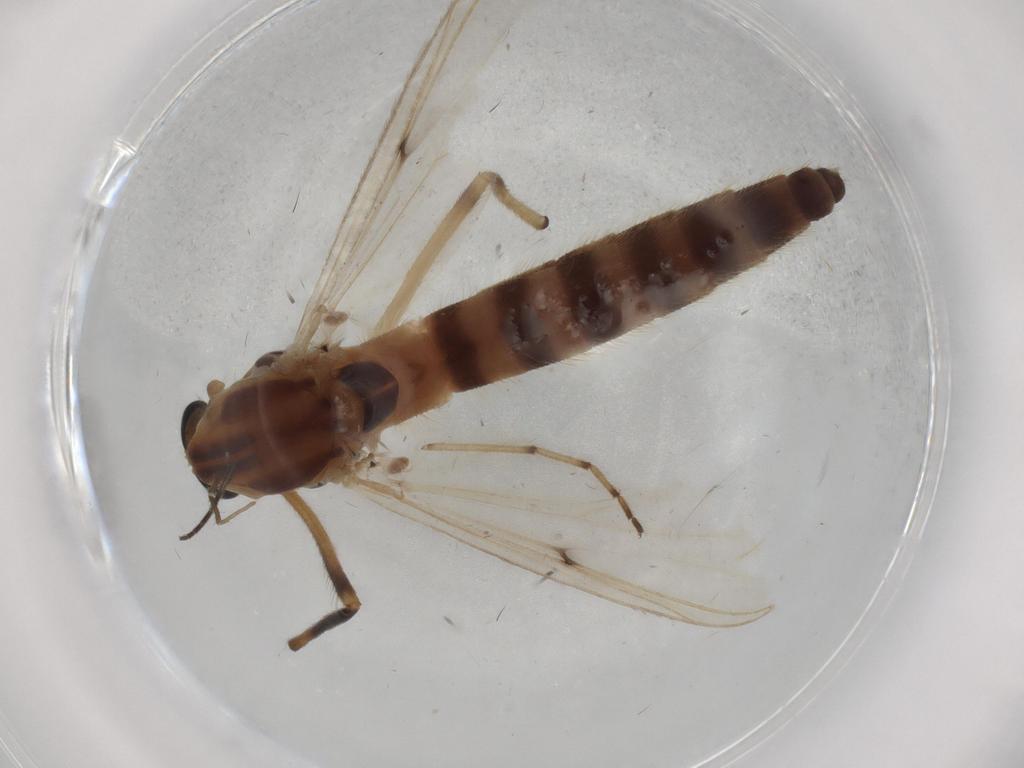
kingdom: Animalia
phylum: Arthropoda
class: Insecta
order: Diptera
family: Chironomidae
